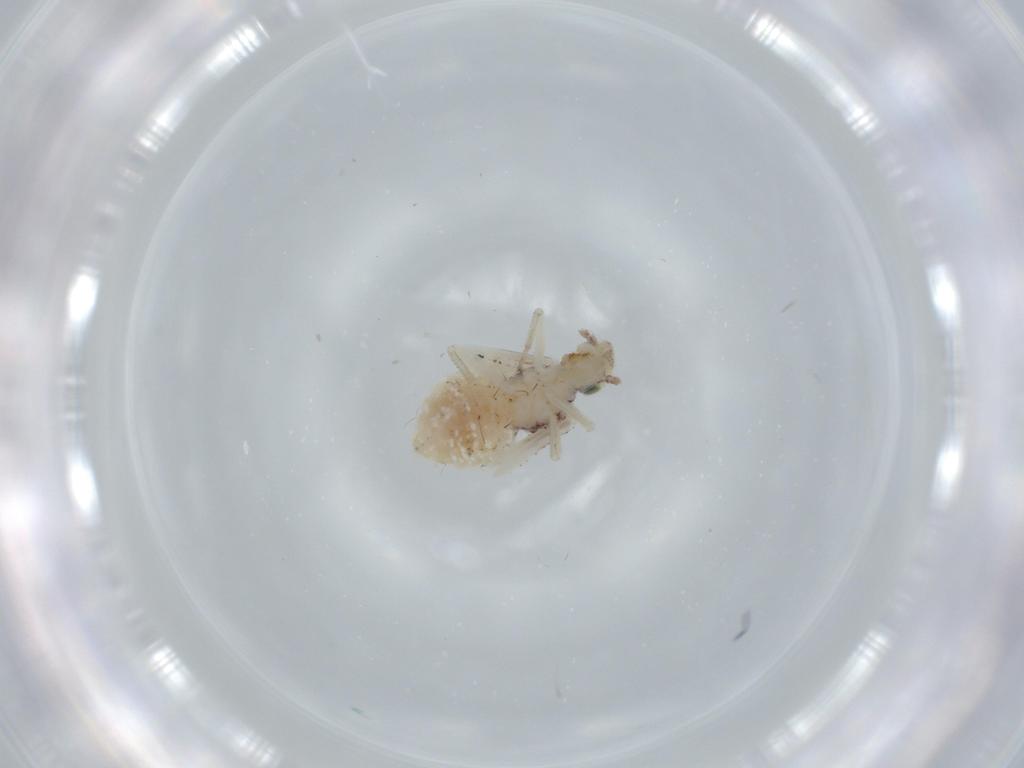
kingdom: Animalia
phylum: Arthropoda
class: Insecta
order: Psocodea
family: Pseudocaeciliidae
